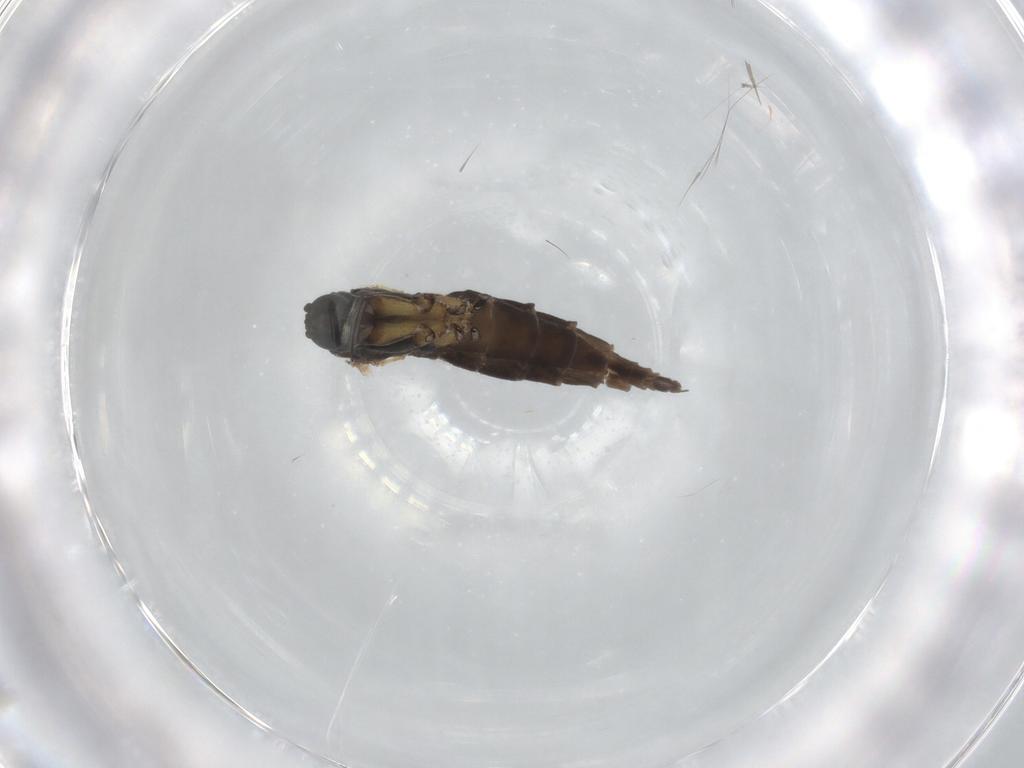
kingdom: Animalia
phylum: Arthropoda
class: Insecta
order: Diptera
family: Sciaridae
